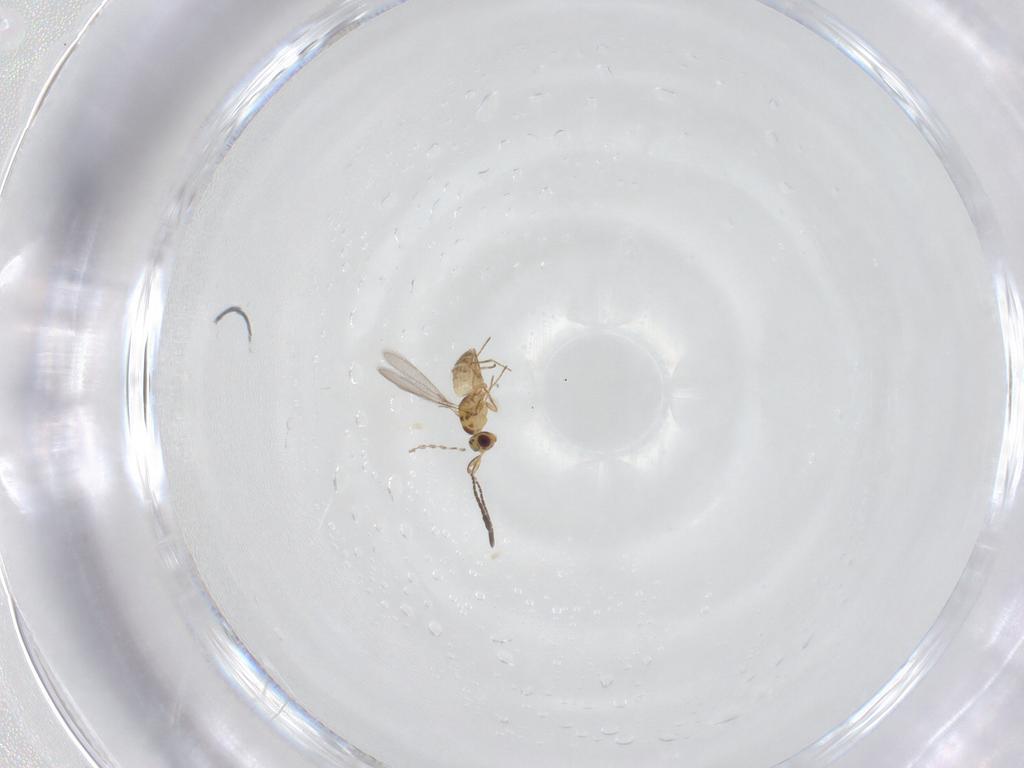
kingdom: Animalia
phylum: Arthropoda
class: Insecta
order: Hymenoptera
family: Mymaridae
